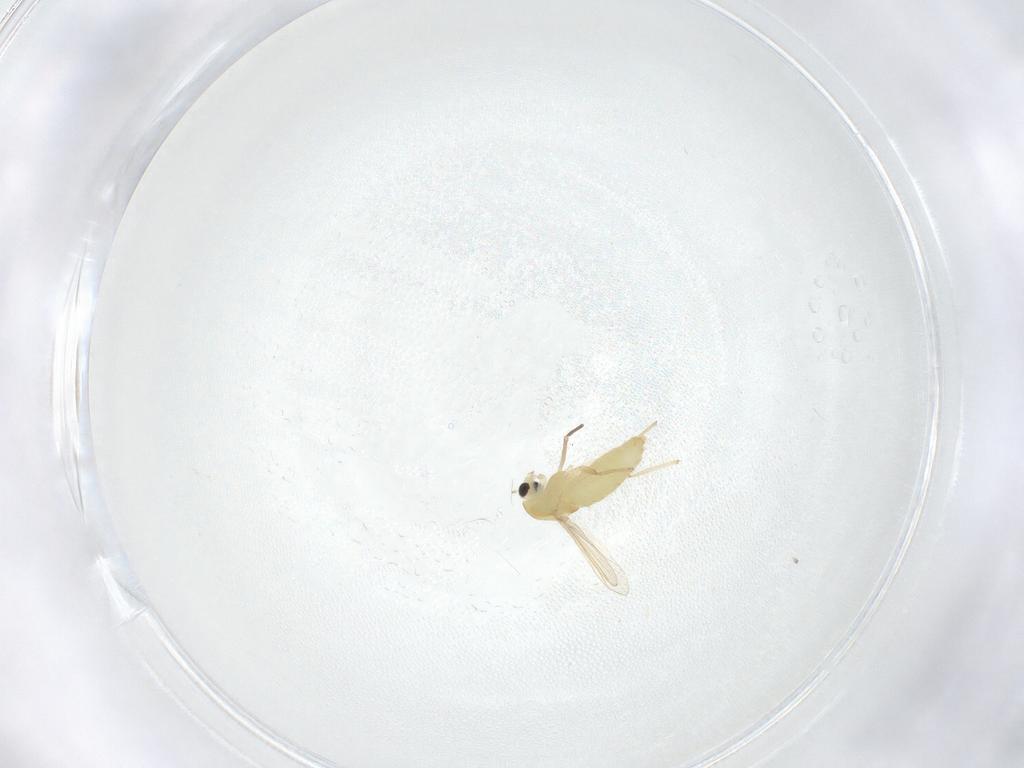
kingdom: Animalia
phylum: Arthropoda
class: Insecta
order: Diptera
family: Chironomidae
